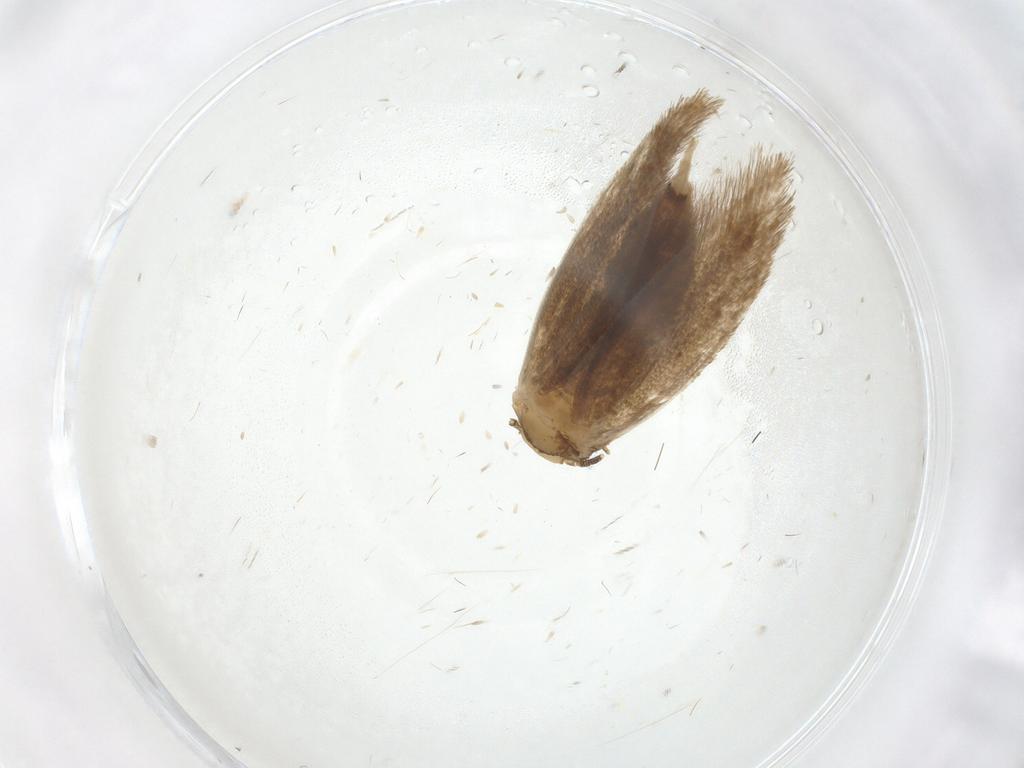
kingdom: Animalia
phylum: Arthropoda
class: Insecta
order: Lepidoptera
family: Tineidae
